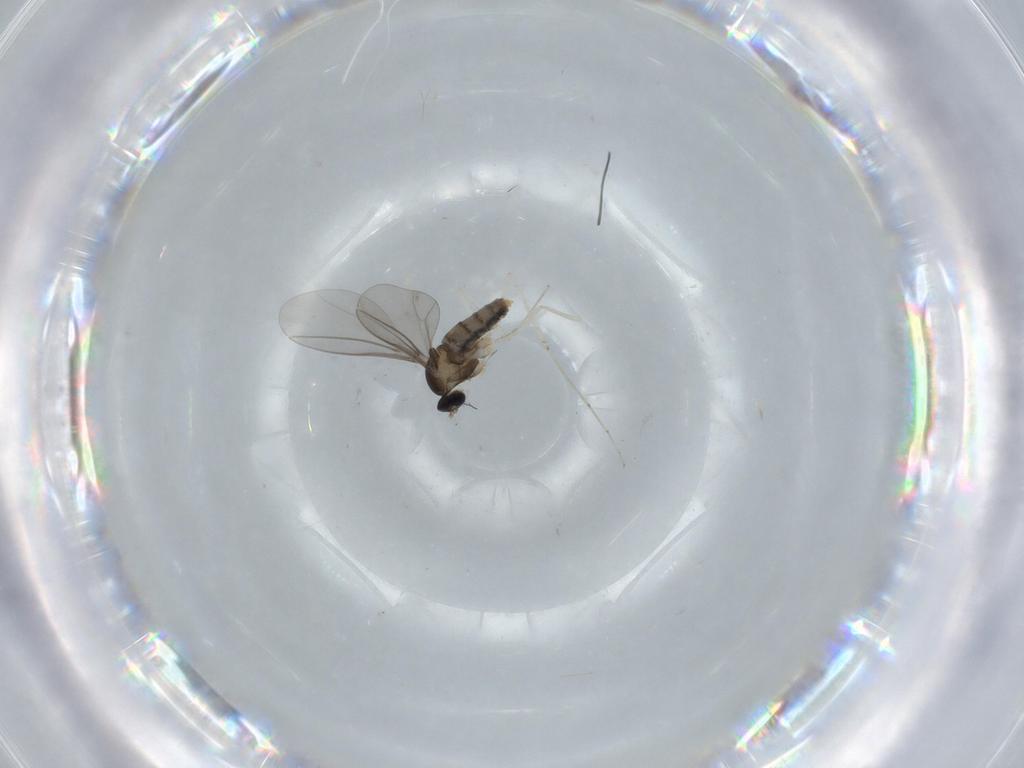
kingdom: Animalia
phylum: Arthropoda
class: Insecta
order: Diptera
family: Cecidomyiidae
